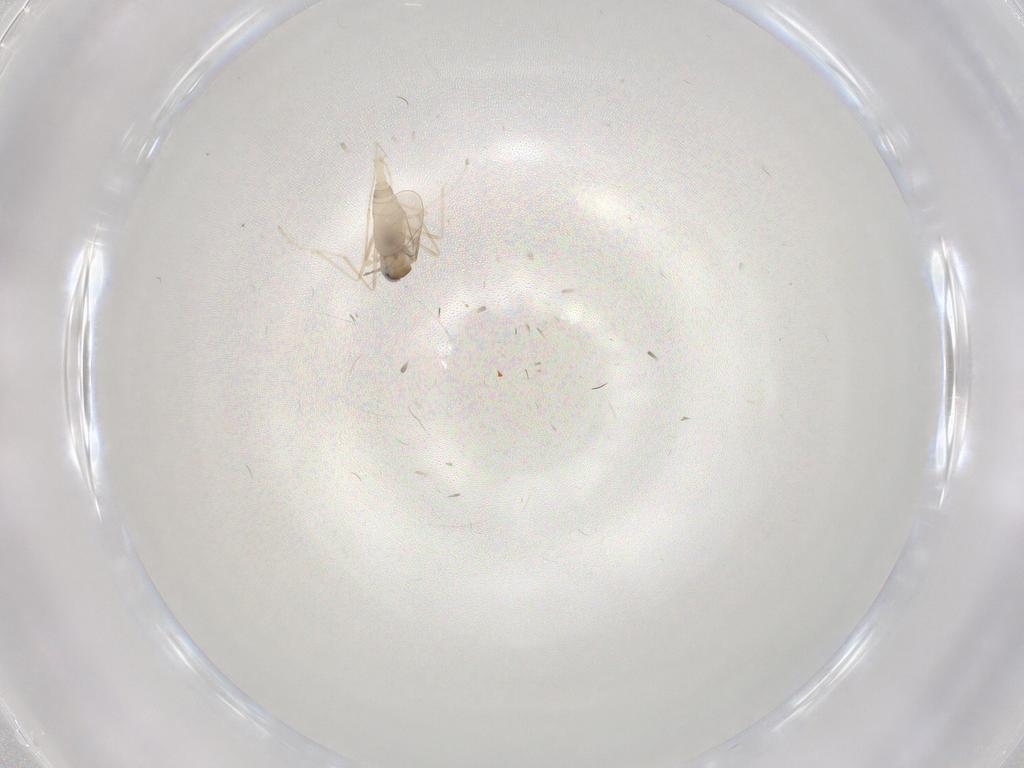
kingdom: Animalia
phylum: Arthropoda
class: Insecta
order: Diptera
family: Cecidomyiidae
